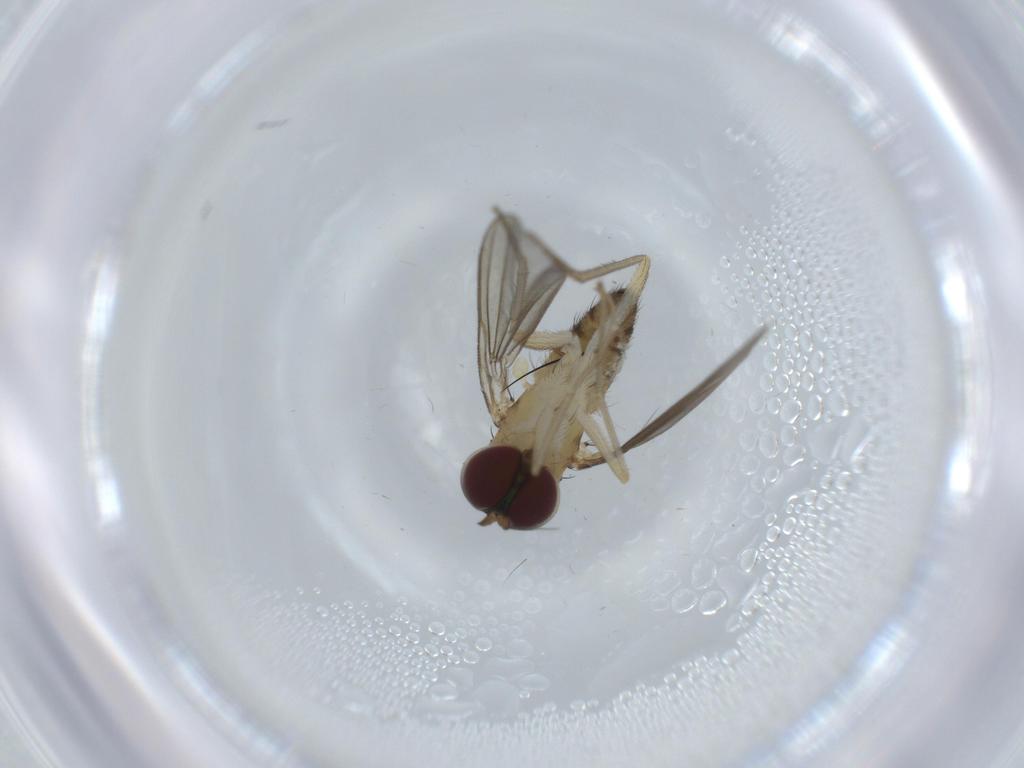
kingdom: Animalia
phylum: Arthropoda
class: Insecta
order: Diptera
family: Dolichopodidae
